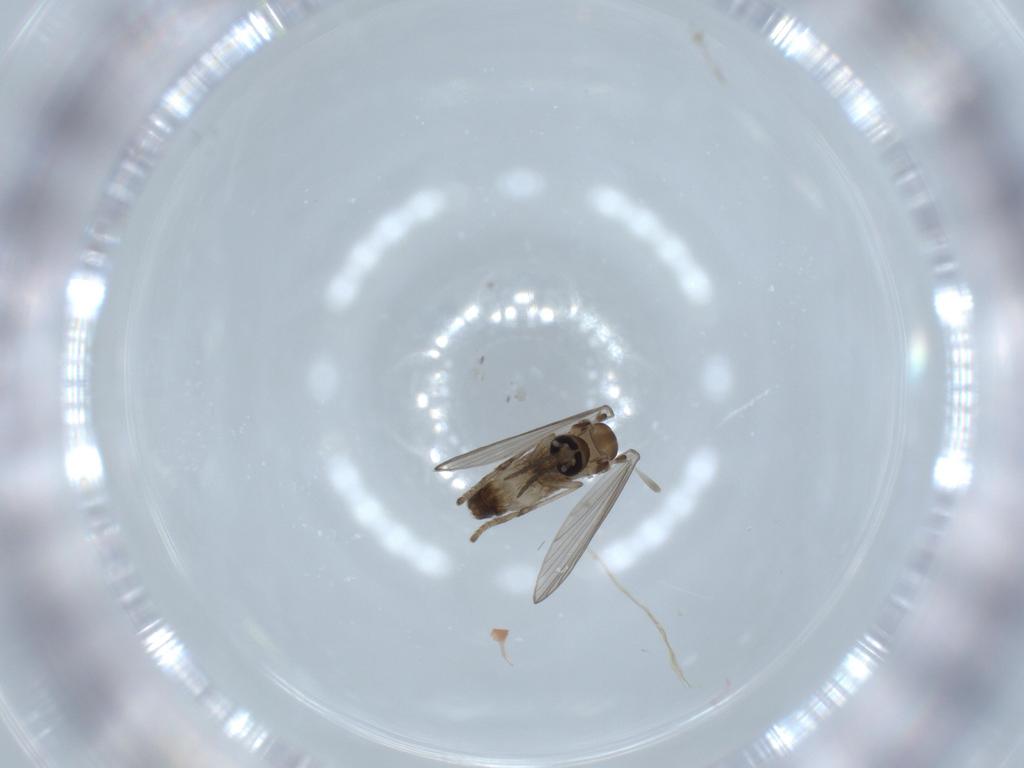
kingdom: Animalia
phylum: Arthropoda
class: Insecta
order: Diptera
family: Psychodidae
